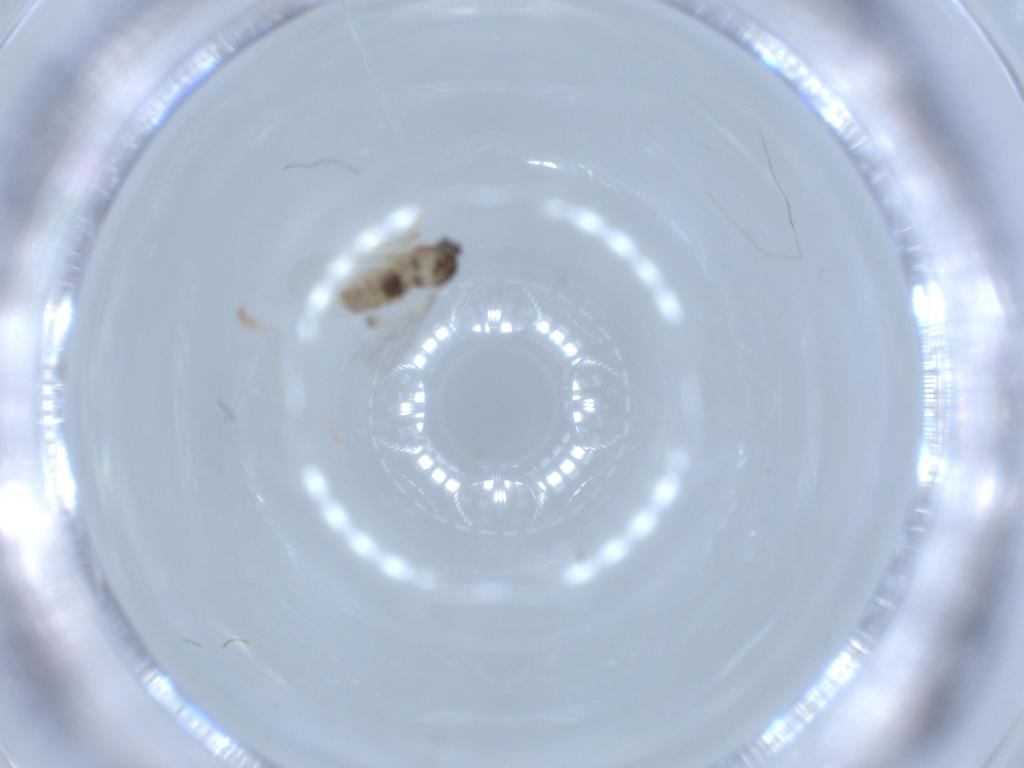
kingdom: Animalia
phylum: Arthropoda
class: Insecta
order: Diptera
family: Cecidomyiidae
